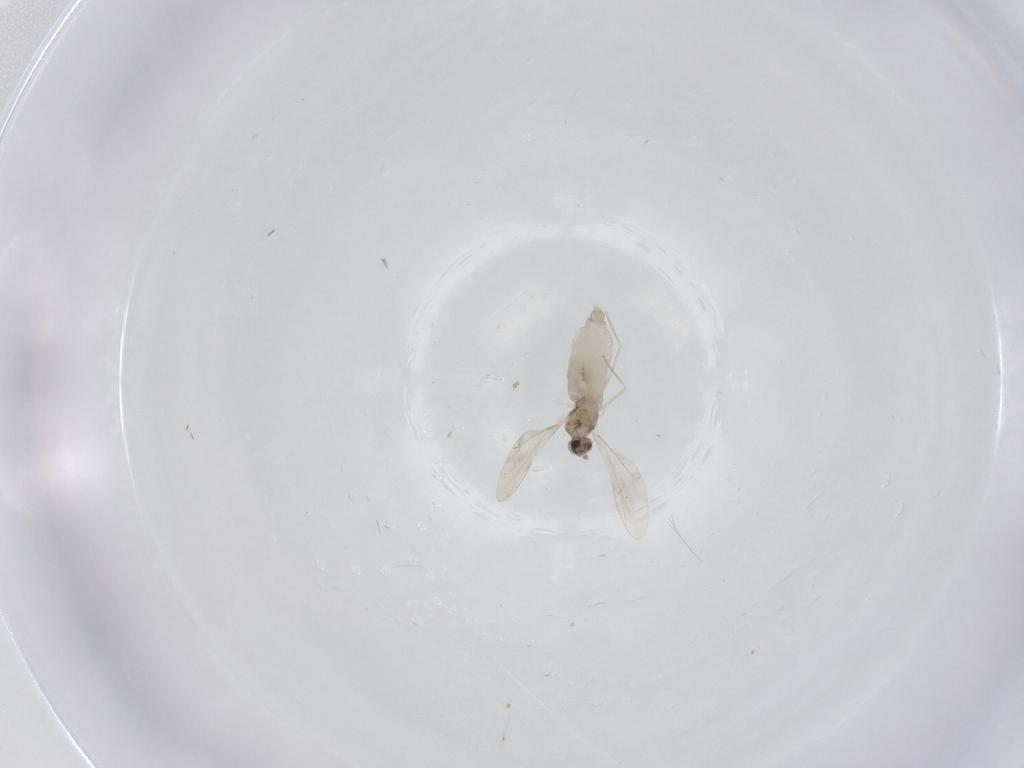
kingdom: Animalia
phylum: Arthropoda
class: Insecta
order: Diptera
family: Cecidomyiidae
